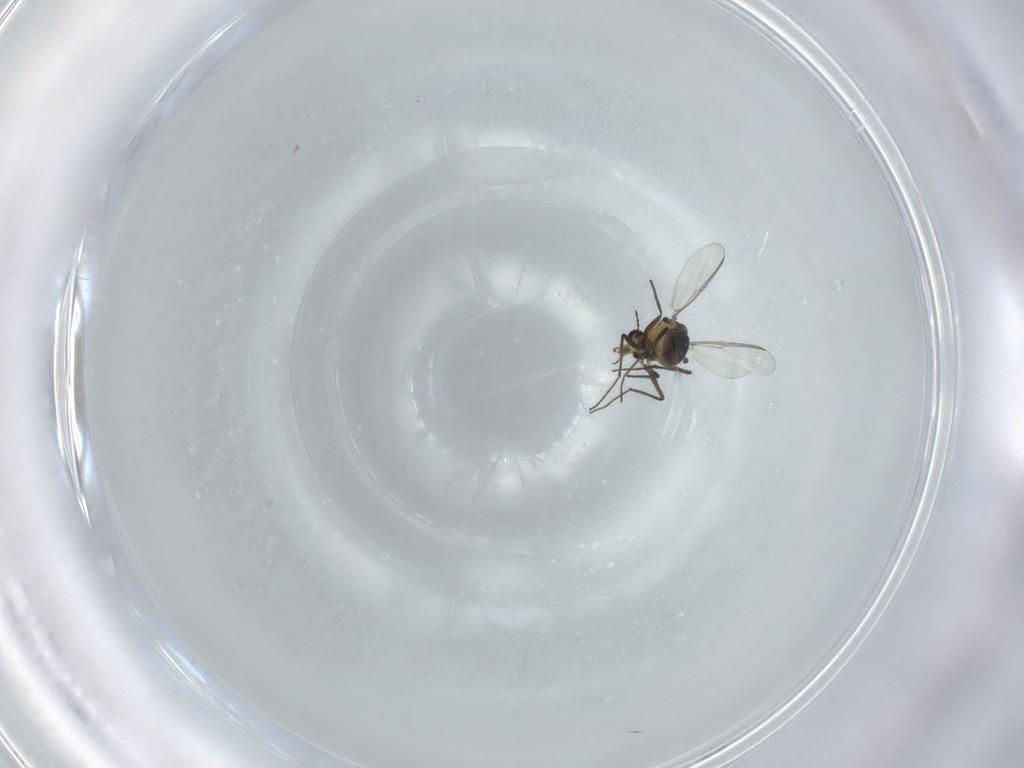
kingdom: Animalia
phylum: Arthropoda
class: Insecta
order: Diptera
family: Chironomidae
